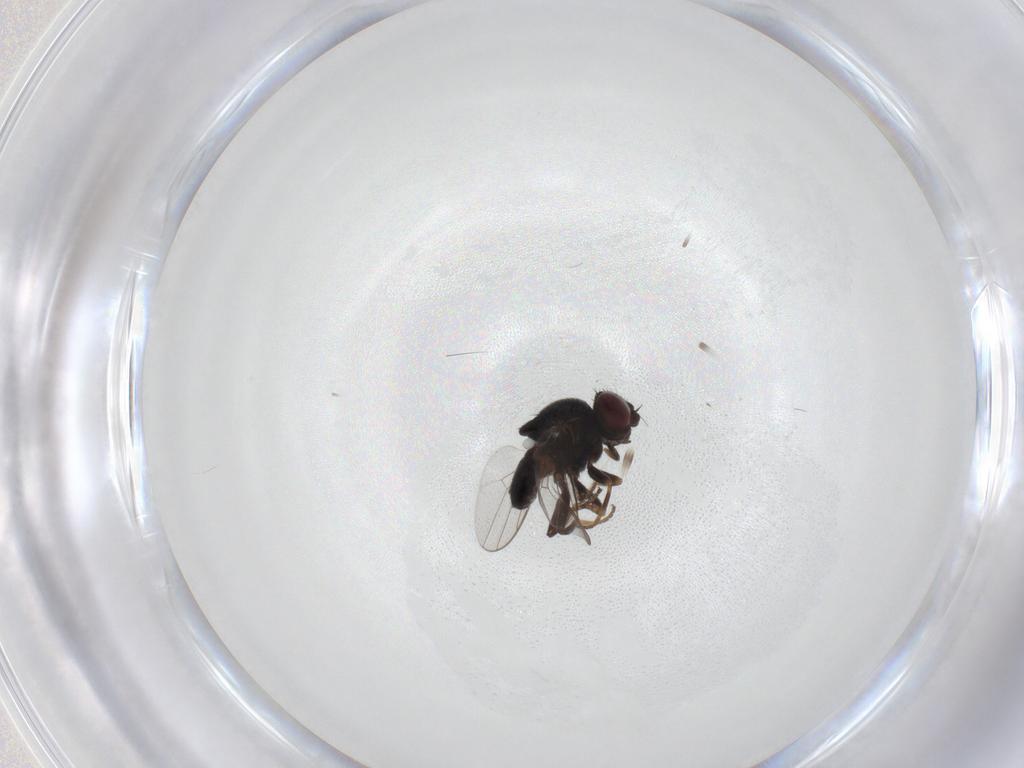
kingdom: Animalia
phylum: Arthropoda
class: Insecta
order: Diptera
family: Chloropidae
